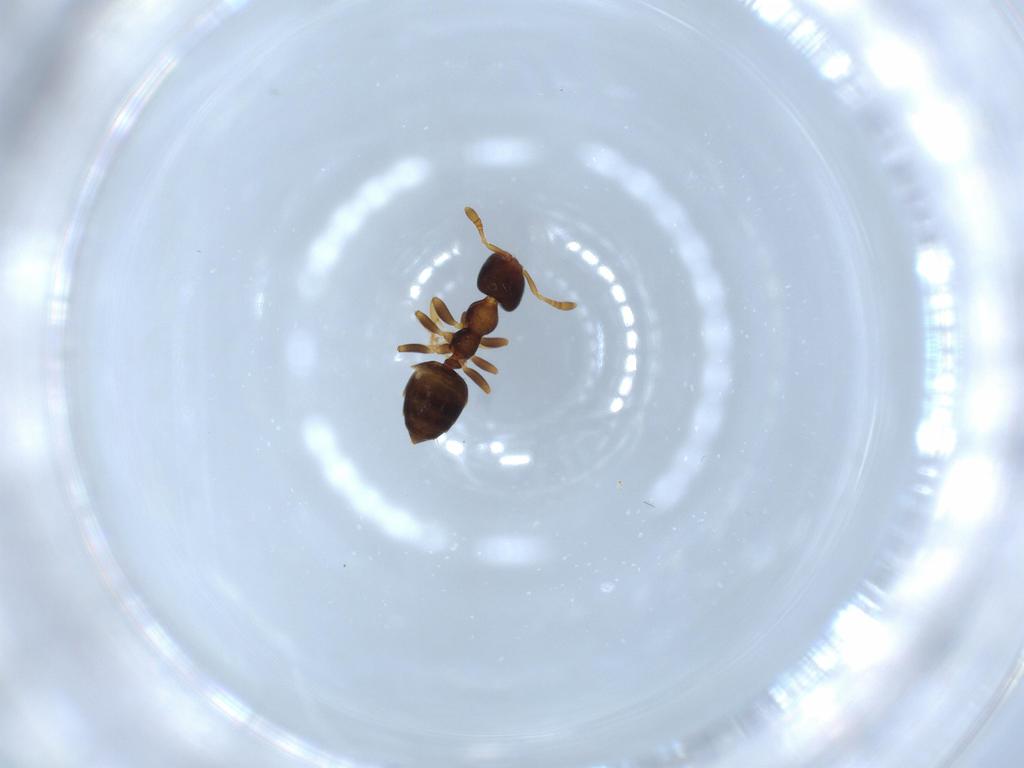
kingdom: Animalia
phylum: Arthropoda
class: Insecta
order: Hymenoptera
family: Formicidae
